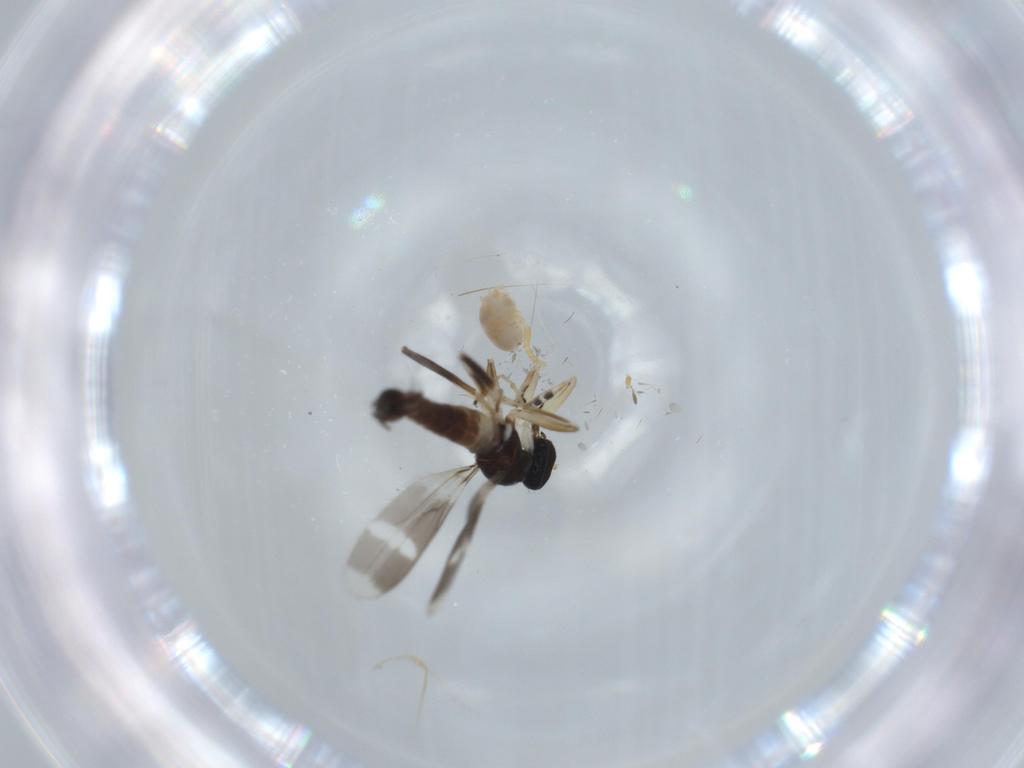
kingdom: Animalia
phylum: Arthropoda
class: Insecta
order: Diptera
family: Hybotidae
